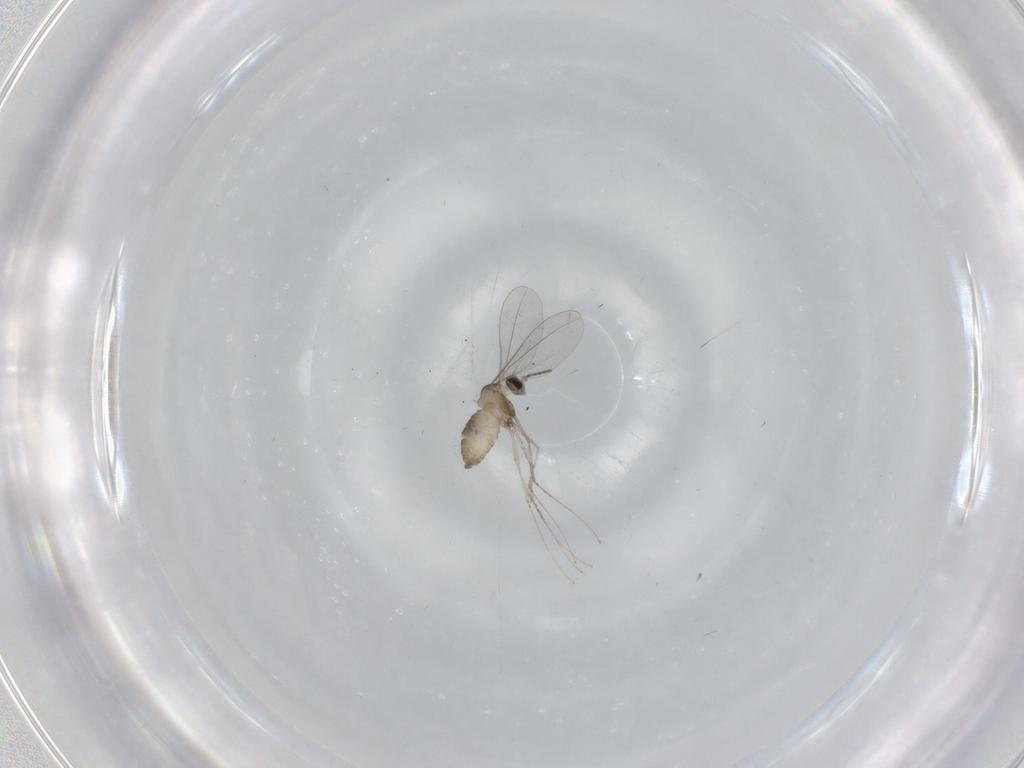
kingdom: Animalia
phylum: Arthropoda
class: Insecta
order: Diptera
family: Cecidomyiidae
